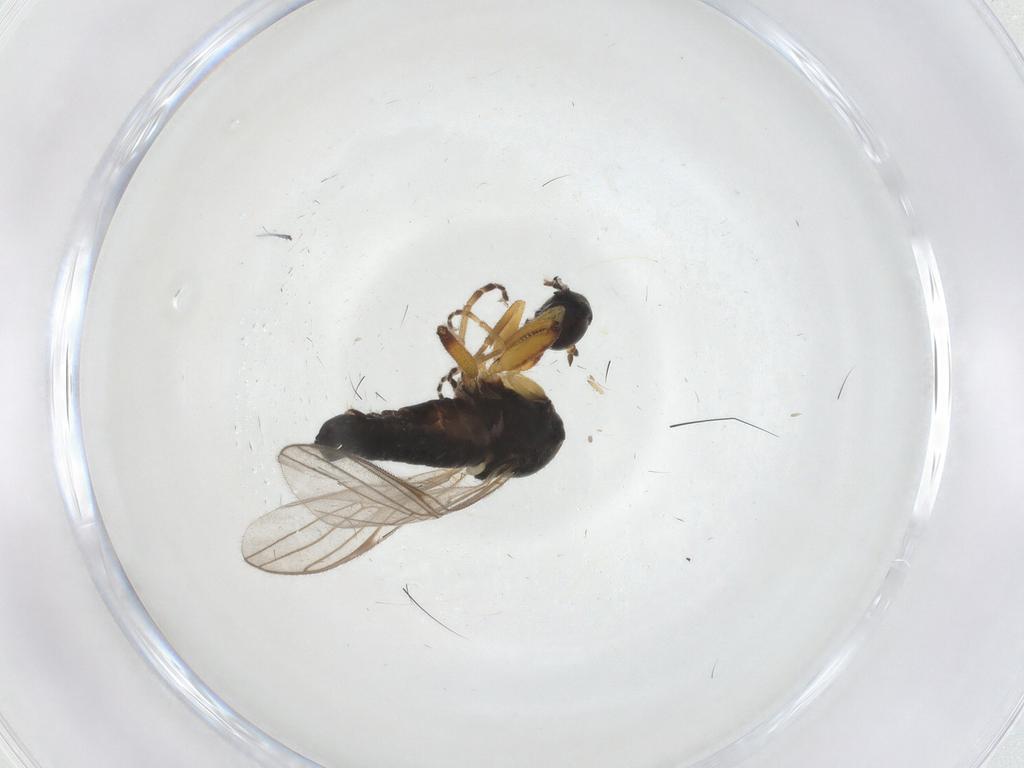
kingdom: Animalia
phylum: Arthropoda
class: Insecta
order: Diptera
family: Hybotidae
